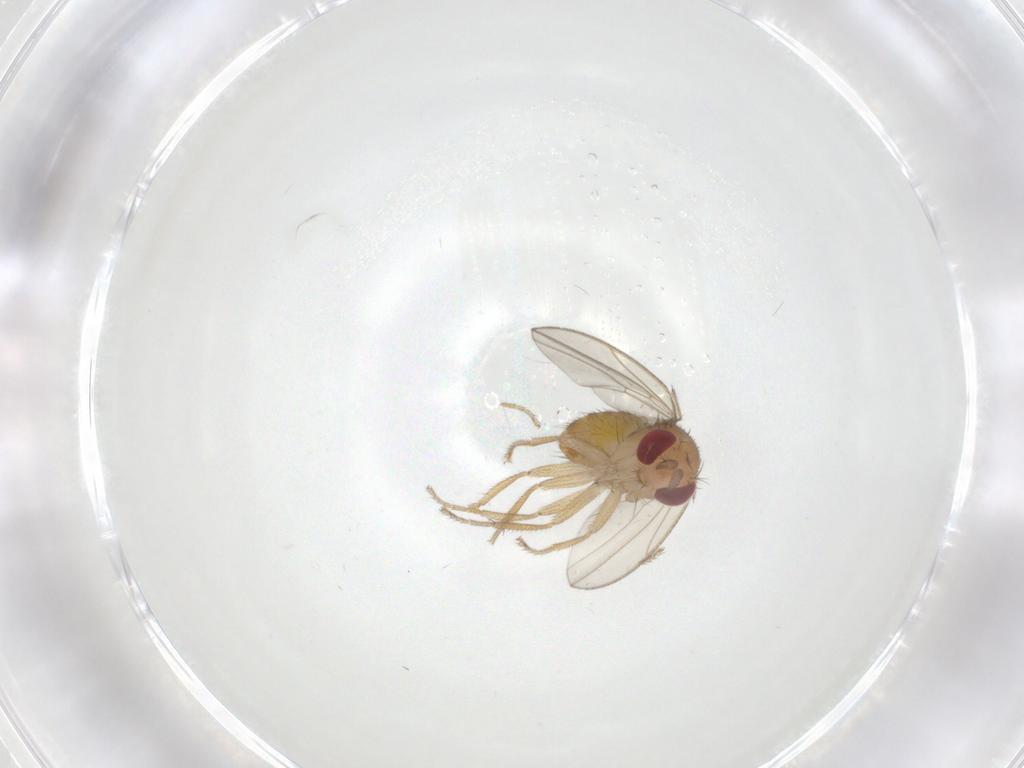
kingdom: Animalia
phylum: Arthropoda
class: Insecta
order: Diptera
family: Drosophilidae
